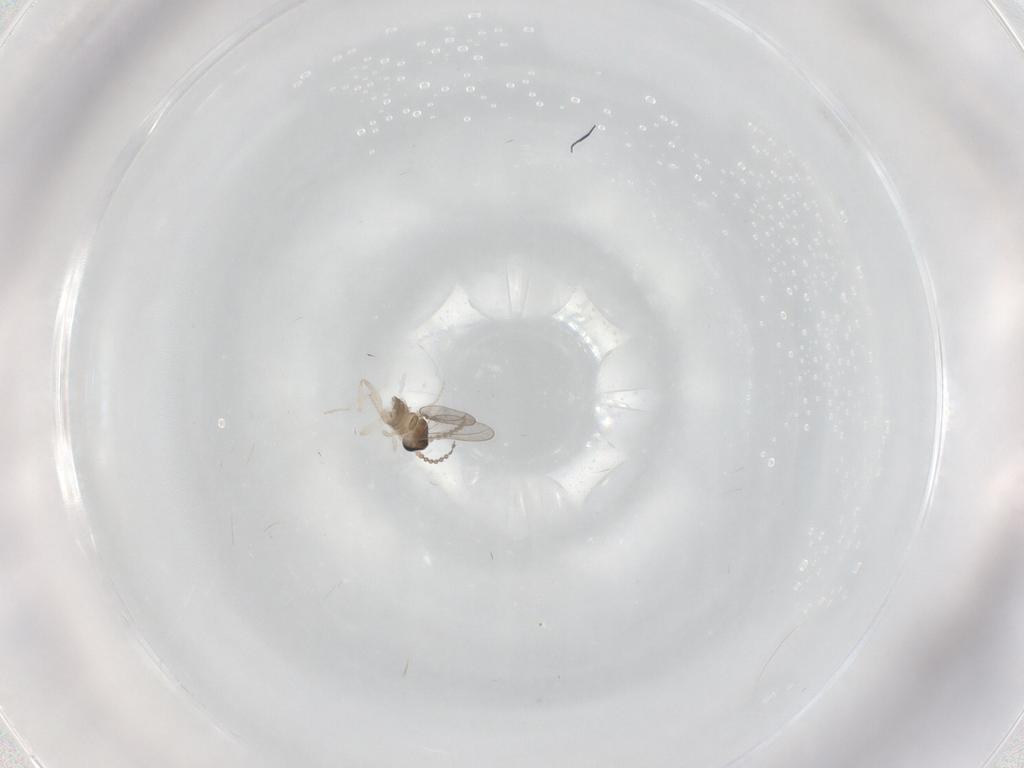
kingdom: Animalia
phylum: Arthropoda
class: Insecta
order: Diptera
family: Cecidomyiidae
